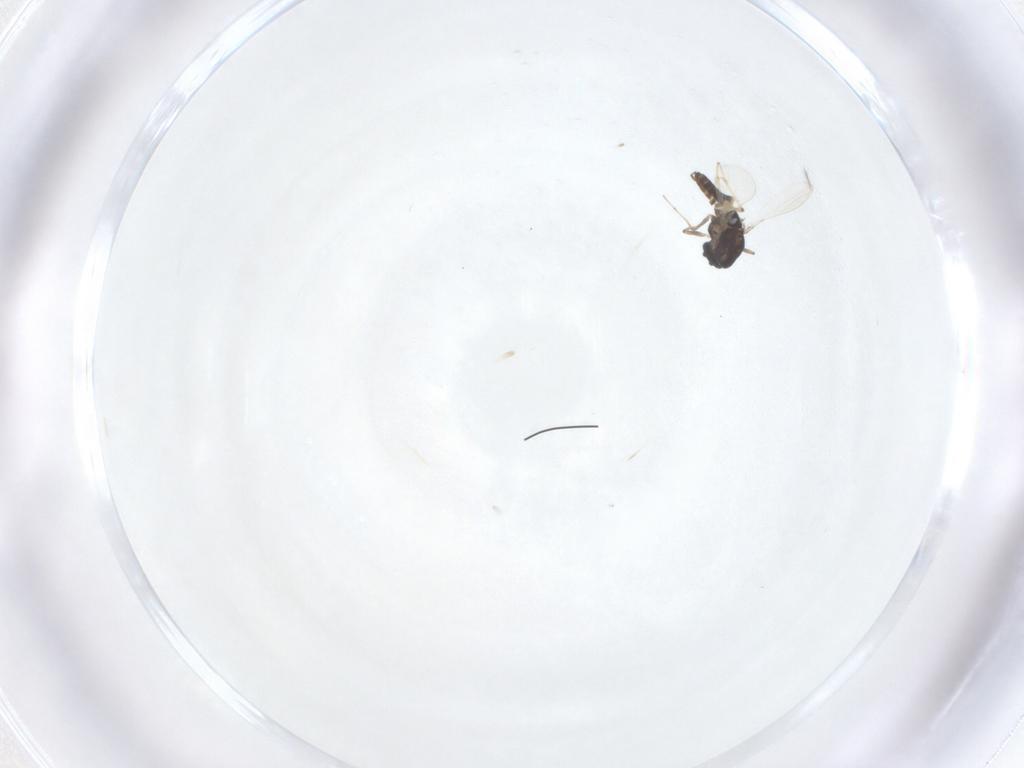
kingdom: Animalia
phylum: Arthropoda
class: Insecta
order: Diptera
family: Chironomidae
